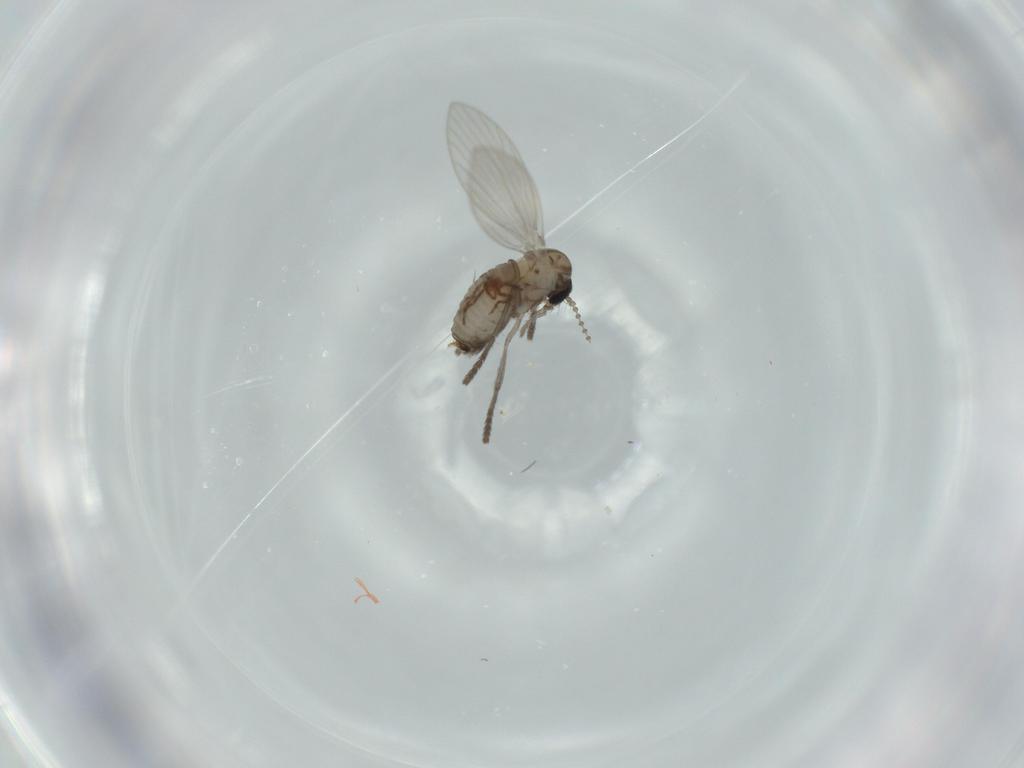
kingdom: Animalia
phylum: Arthropoda
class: Insecta
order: Diptera
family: Psychodidae
